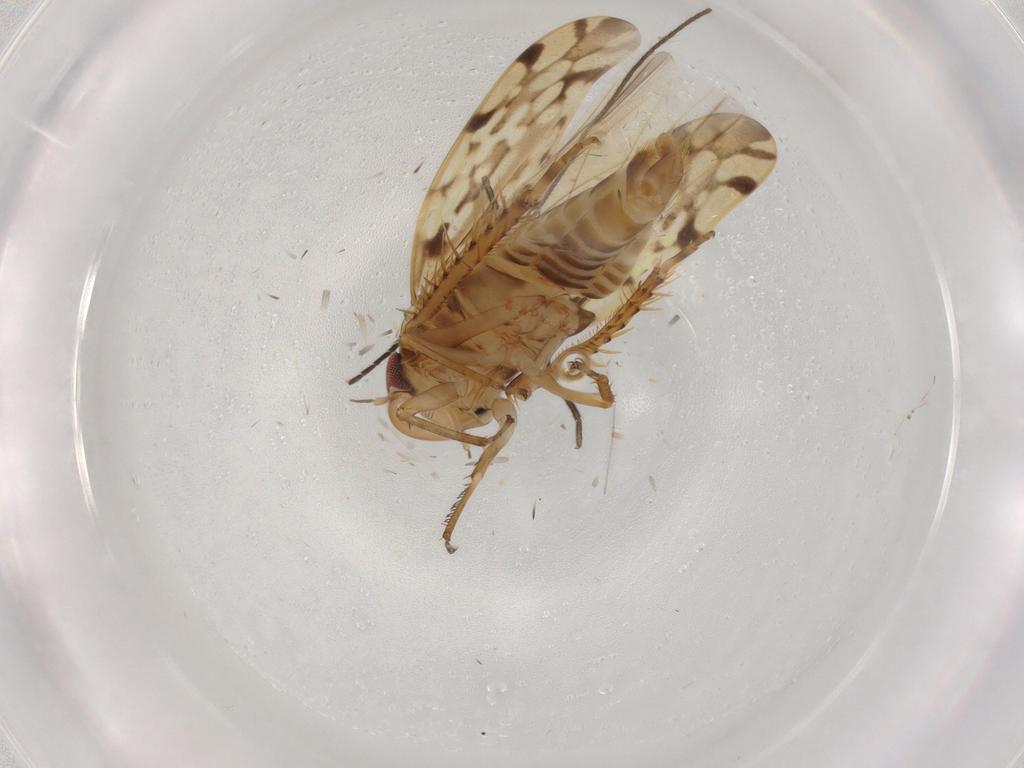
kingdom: Animalia
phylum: Arthropoda
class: Insecta
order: Hemiptera
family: Cicadellidae
